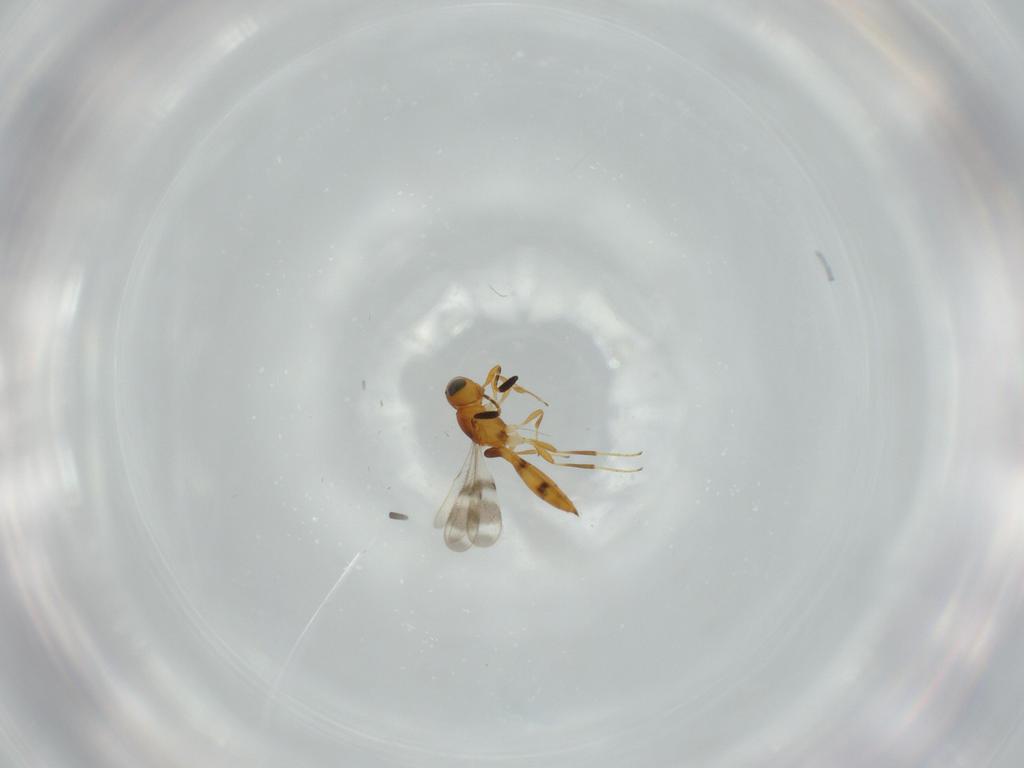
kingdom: Animalia
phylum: Arthropoda
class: Insecta
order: Hymenoptera
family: Scelionidae
